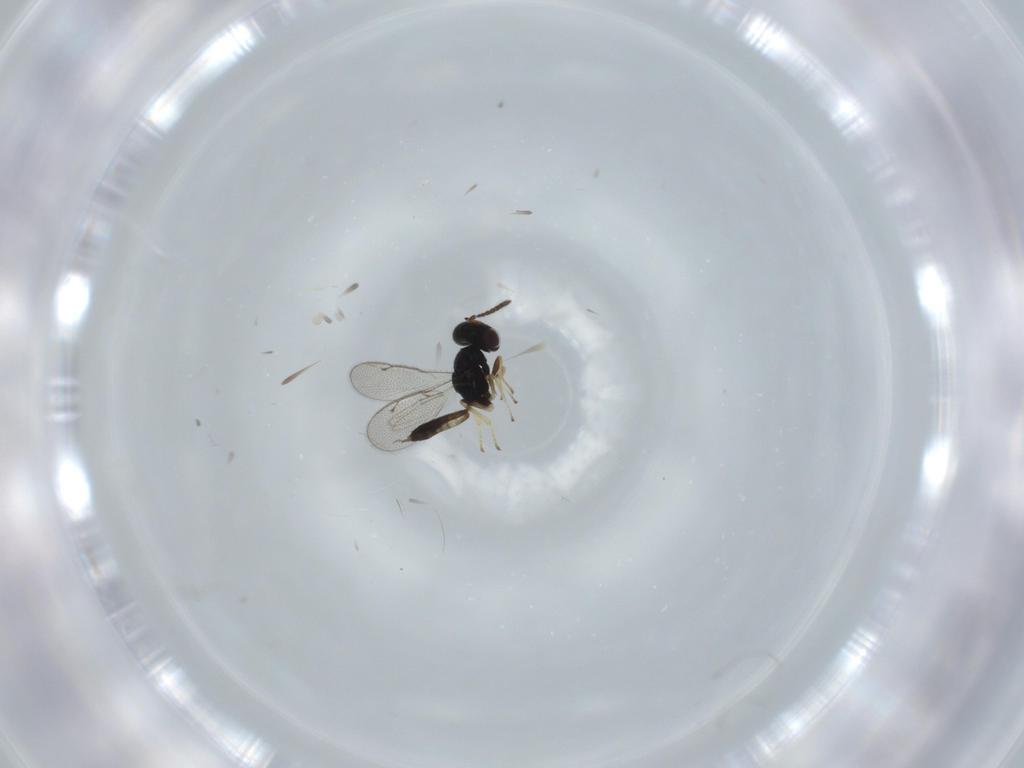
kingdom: Animalia
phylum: Arthropoda
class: Insecta
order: Hymenoptera
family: Pteromalidae
